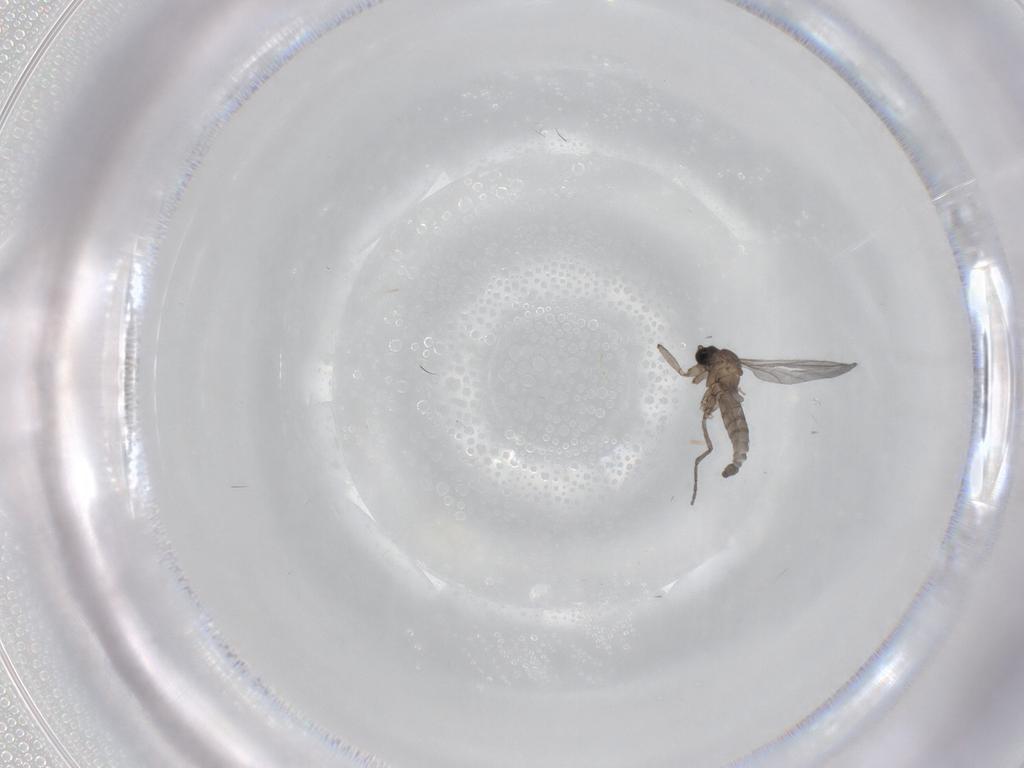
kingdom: Animalia
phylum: Arthropoda
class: Insecta
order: Diptera
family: Sciaridae
